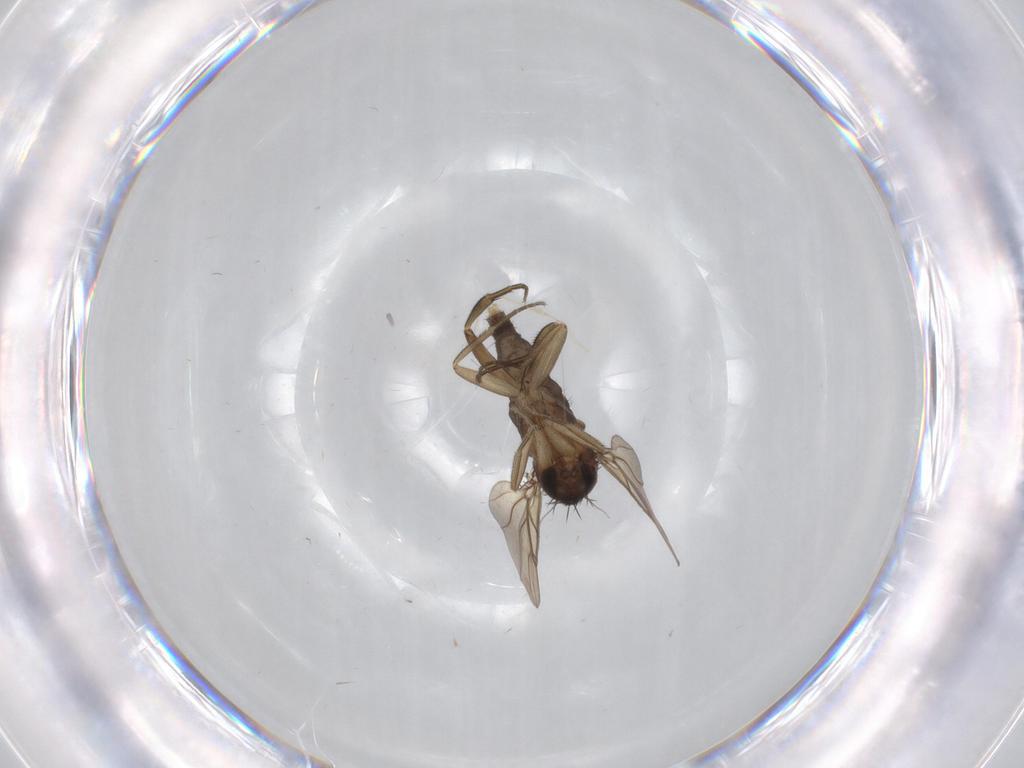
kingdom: Animalia
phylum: Arthropoda
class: Insecta
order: Diptera
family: Phoridae
